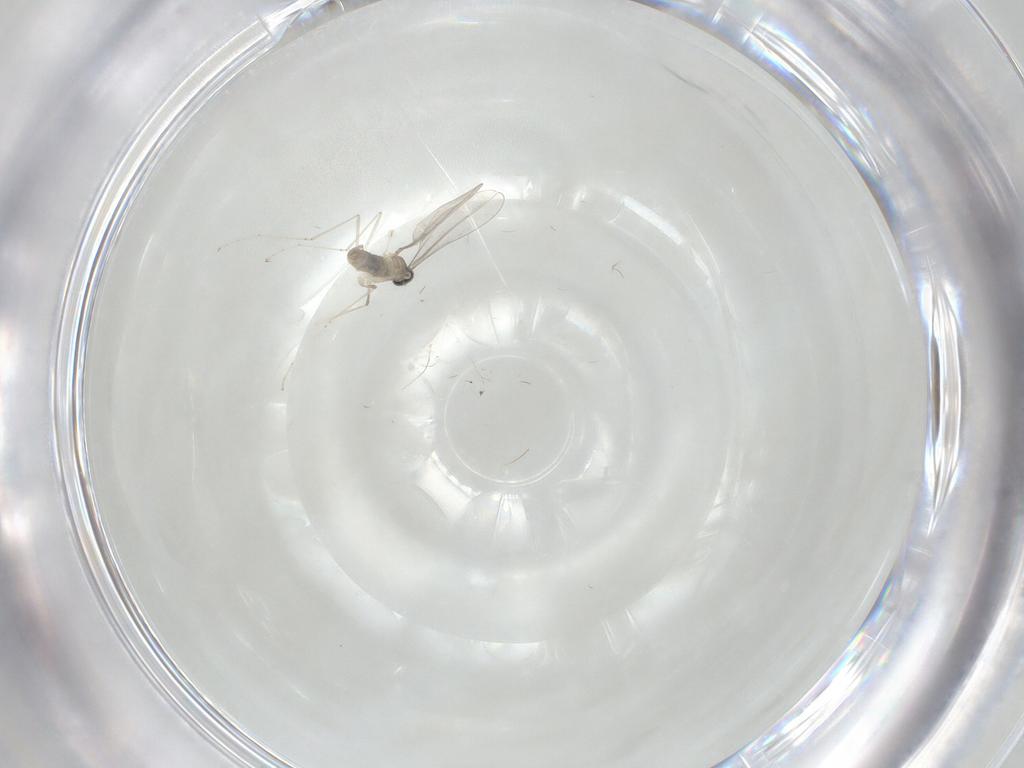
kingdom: Animalia
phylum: Arthropoda
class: Insecta
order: Diptera
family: Cecidomyiidae
